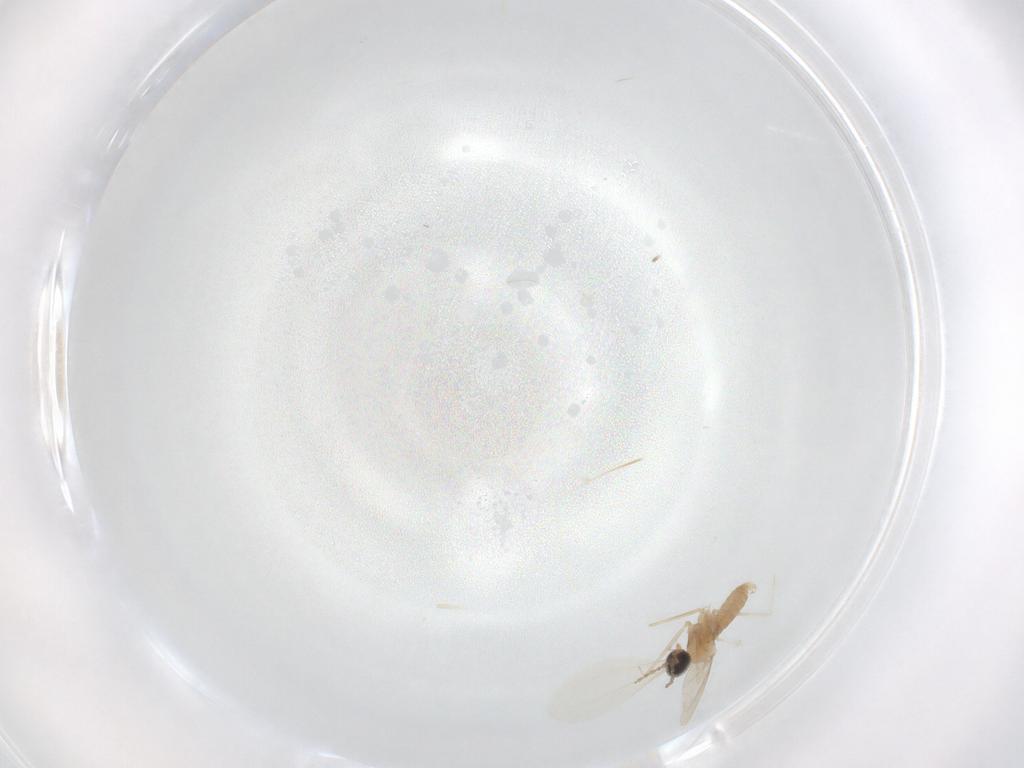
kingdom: Animalia
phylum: Arthropoda
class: Insecta
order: Diptera
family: Cecidomyiidae
